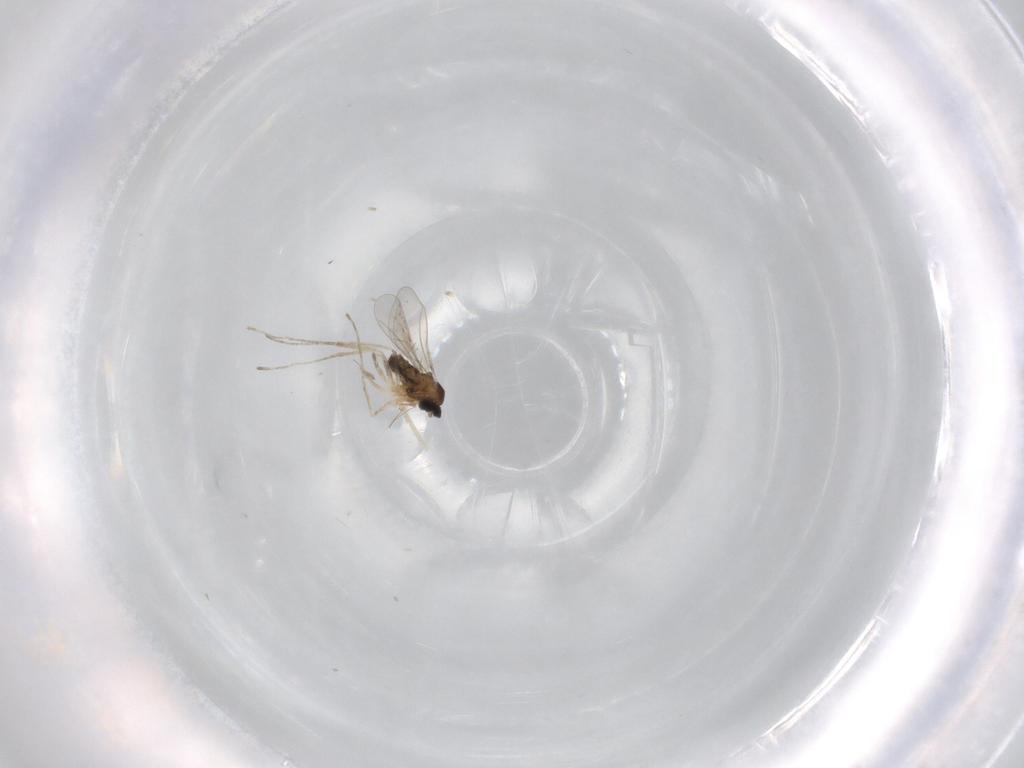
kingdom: Animalia
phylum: Arthropoda
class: Insecta
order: Diptera
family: Cecidomyiidae
